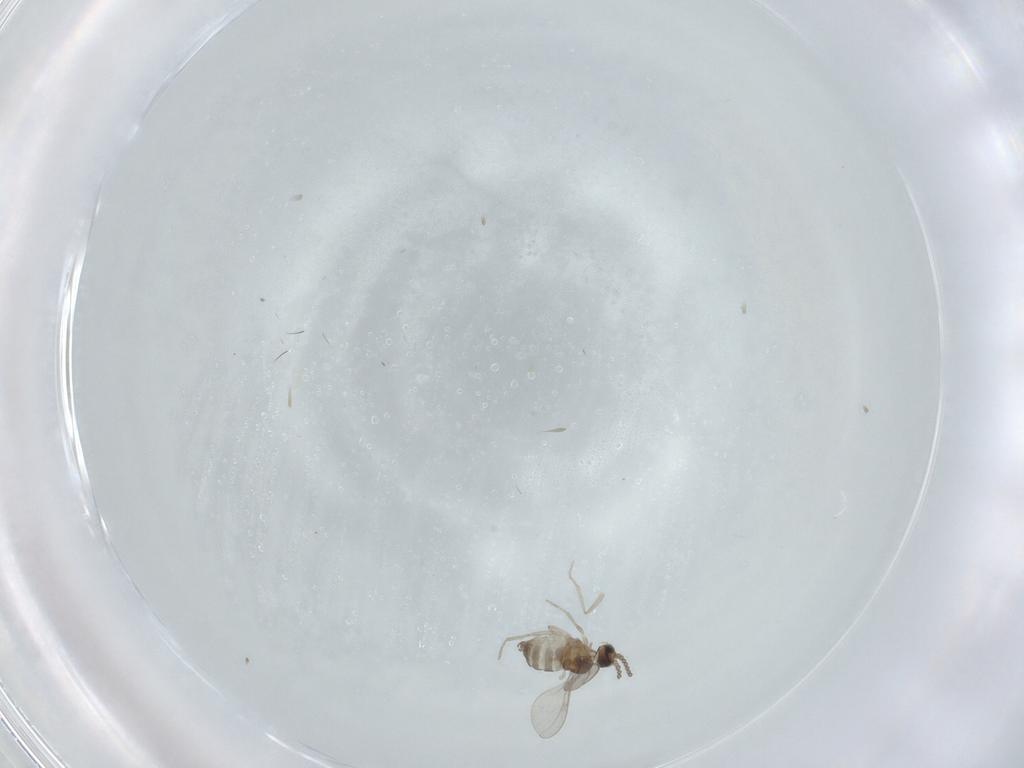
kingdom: Animalia
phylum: Arthropoda
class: Insecta
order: Diptera
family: Cecidomyiidae
